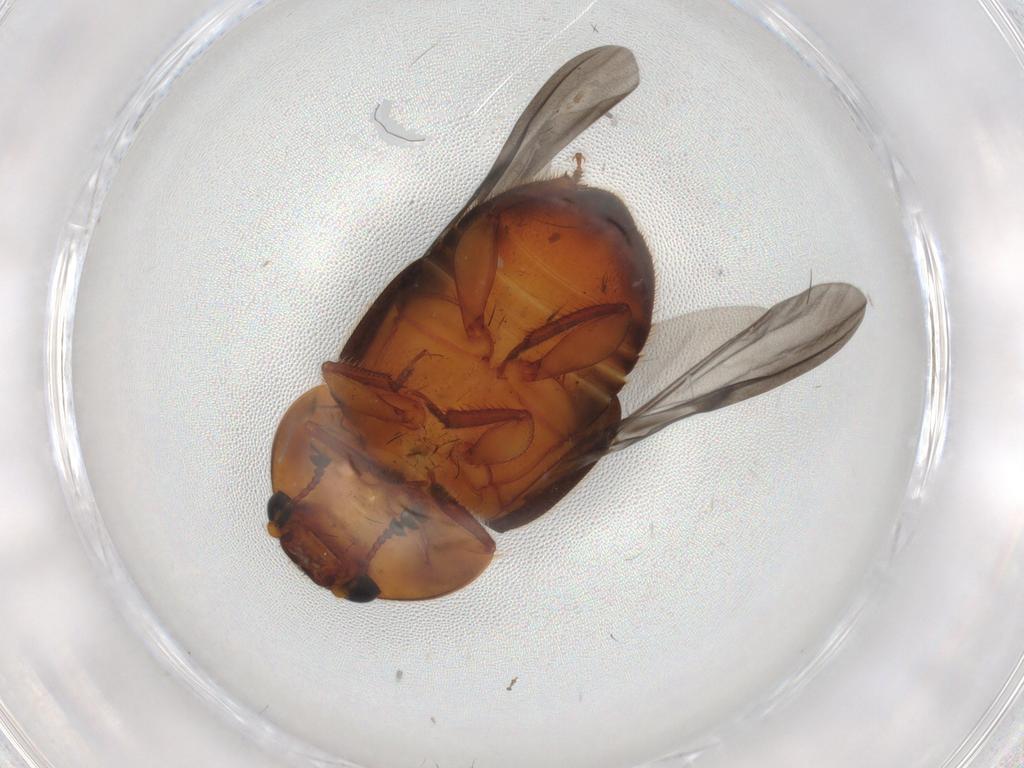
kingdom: Animalia
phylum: Arthropoda
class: Insecta
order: Coleoptera
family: Nitidulidae
